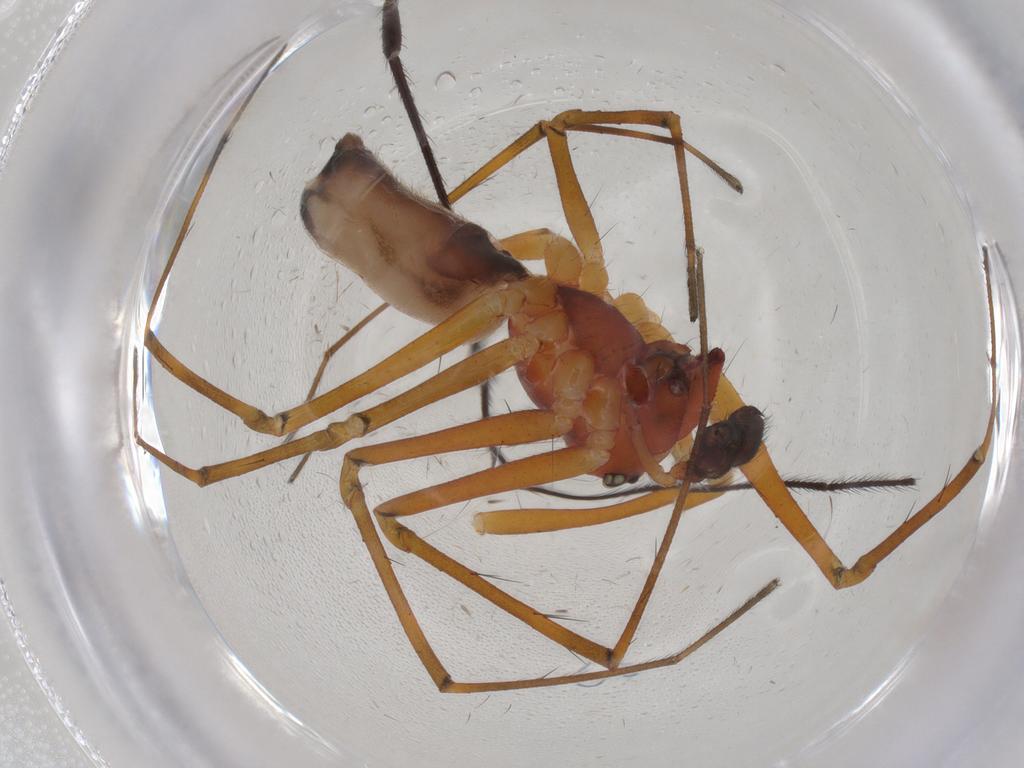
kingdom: Animalia
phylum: Arthropoda
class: Arachnida
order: Araneae
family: Linyphiidae
